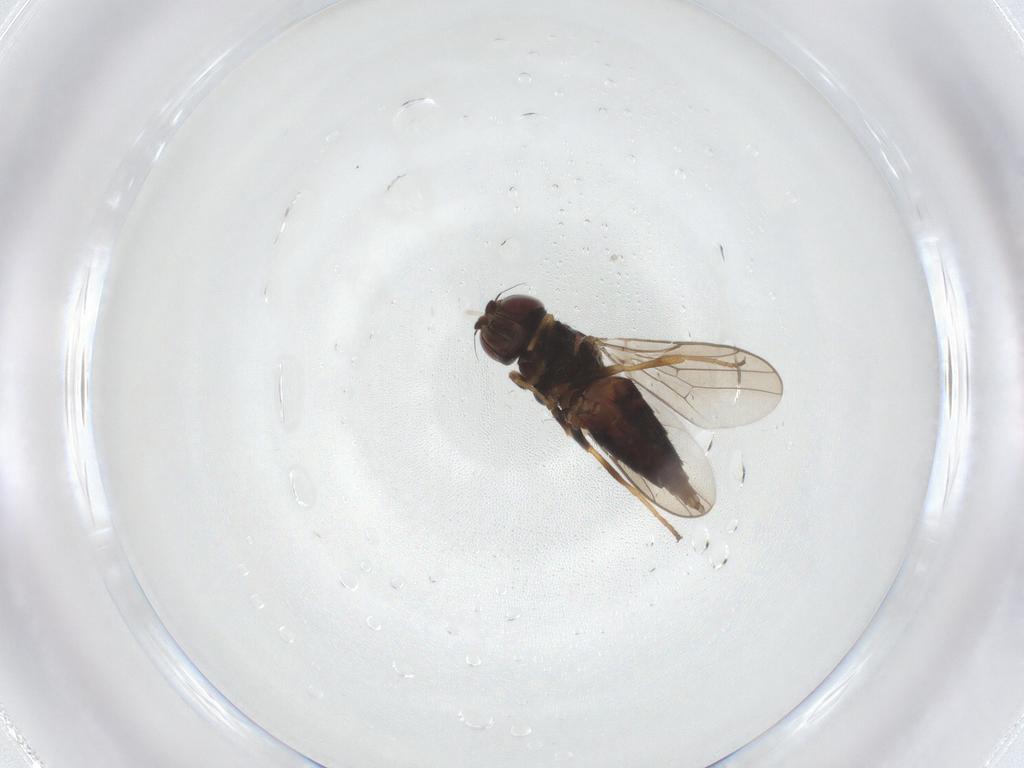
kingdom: Animalia
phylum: Arthropoda
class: Insecta
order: Diptera
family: Chloropidae
